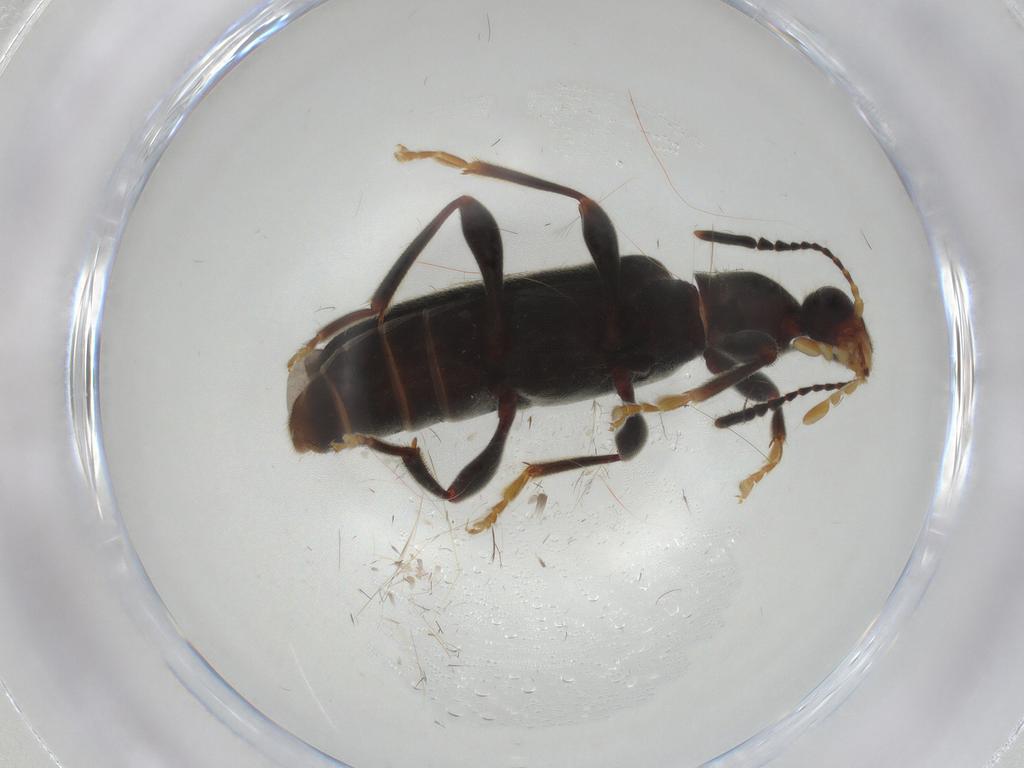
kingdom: Animalia
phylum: Arthropoda
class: Insecta
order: Coleoptera
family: Anthicidae
